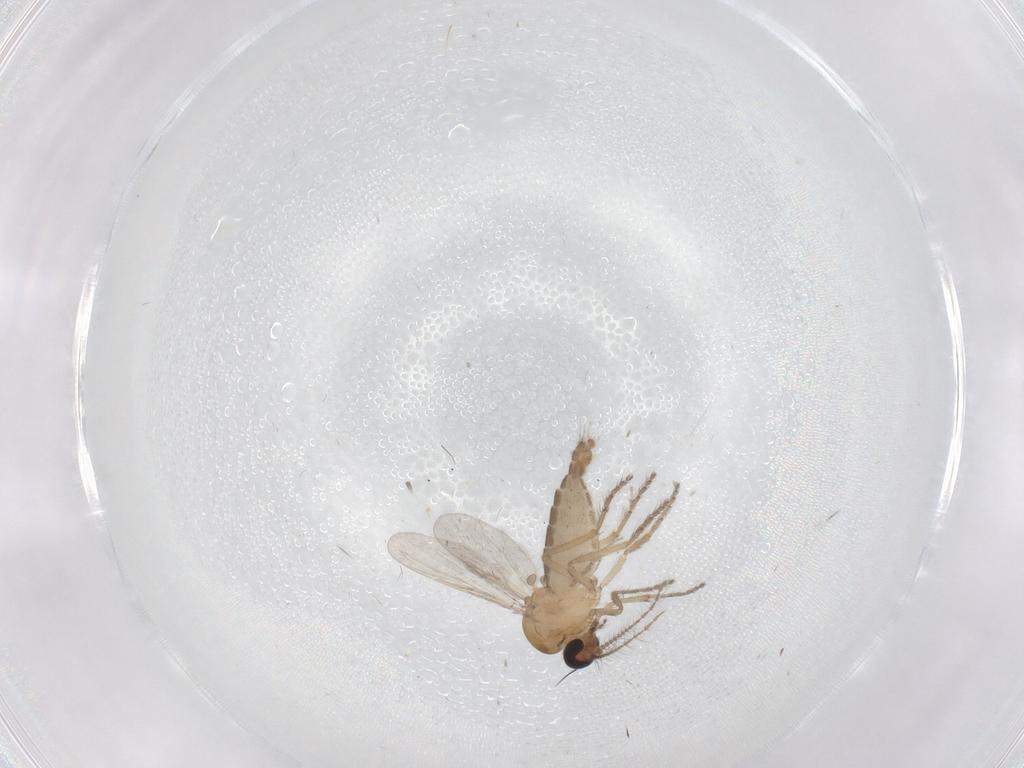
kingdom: Animalia
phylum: Arthropoda
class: Insecta
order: Diptera
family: Ceratopogonidae
